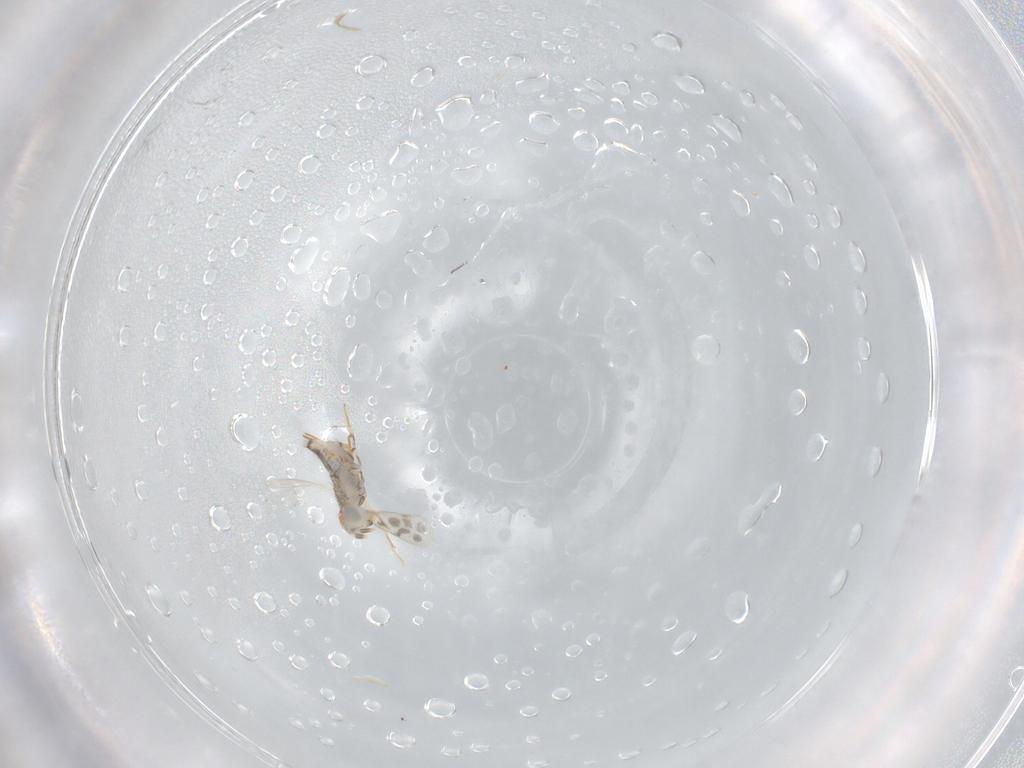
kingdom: Animalia
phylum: Arthropoda
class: Insecta
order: Hymenoptera
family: Aphelinidae
